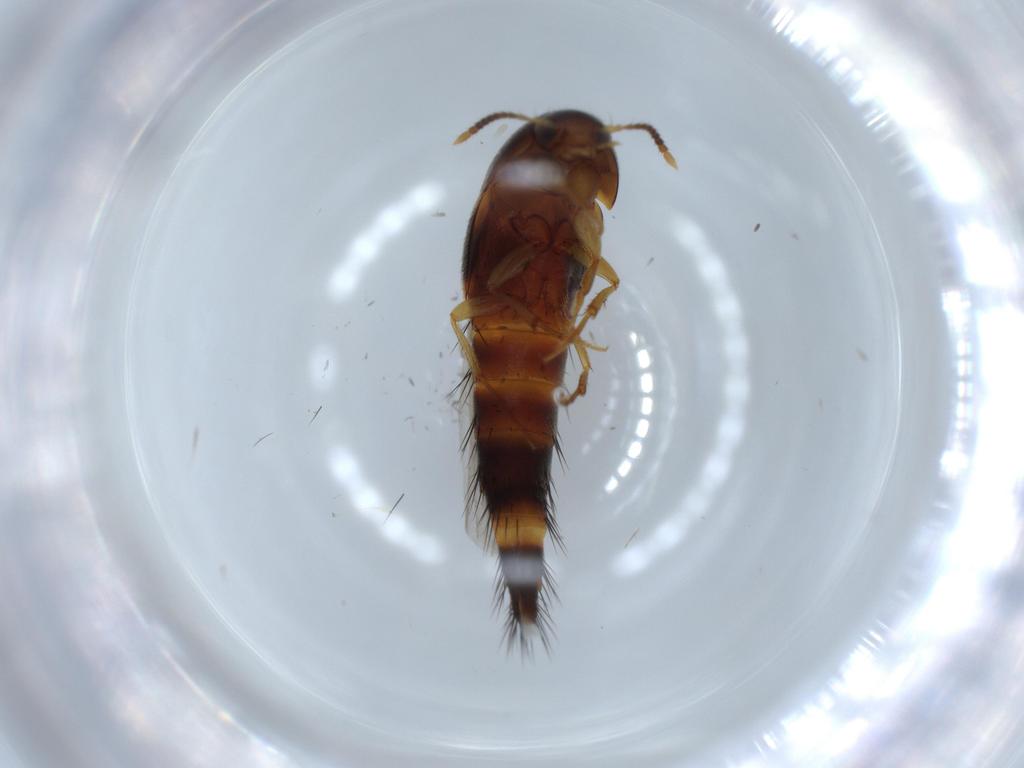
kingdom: Animalia
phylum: Arthropoda
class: Insecta
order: Coleoptera
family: Staphylinidae
